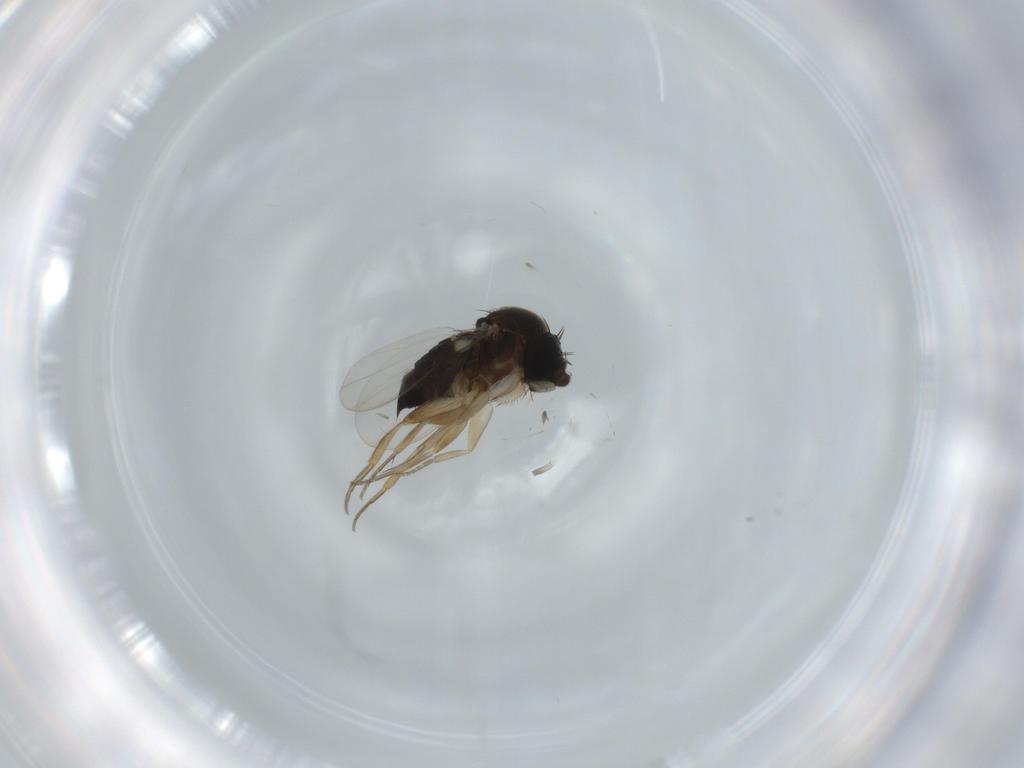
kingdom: Animalia
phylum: Arthropoda
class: Insecta
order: Diptera
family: Phoridae
